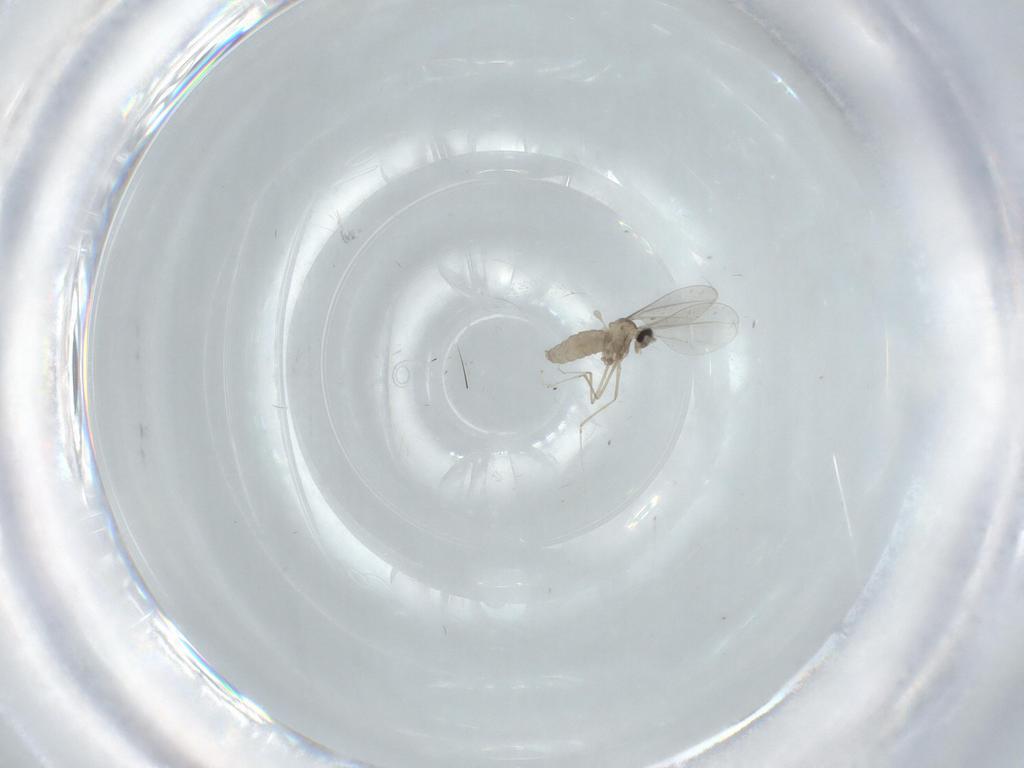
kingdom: Animalia
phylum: Arthropoda
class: Insecta
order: Diptera
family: Cecidomyiidae
